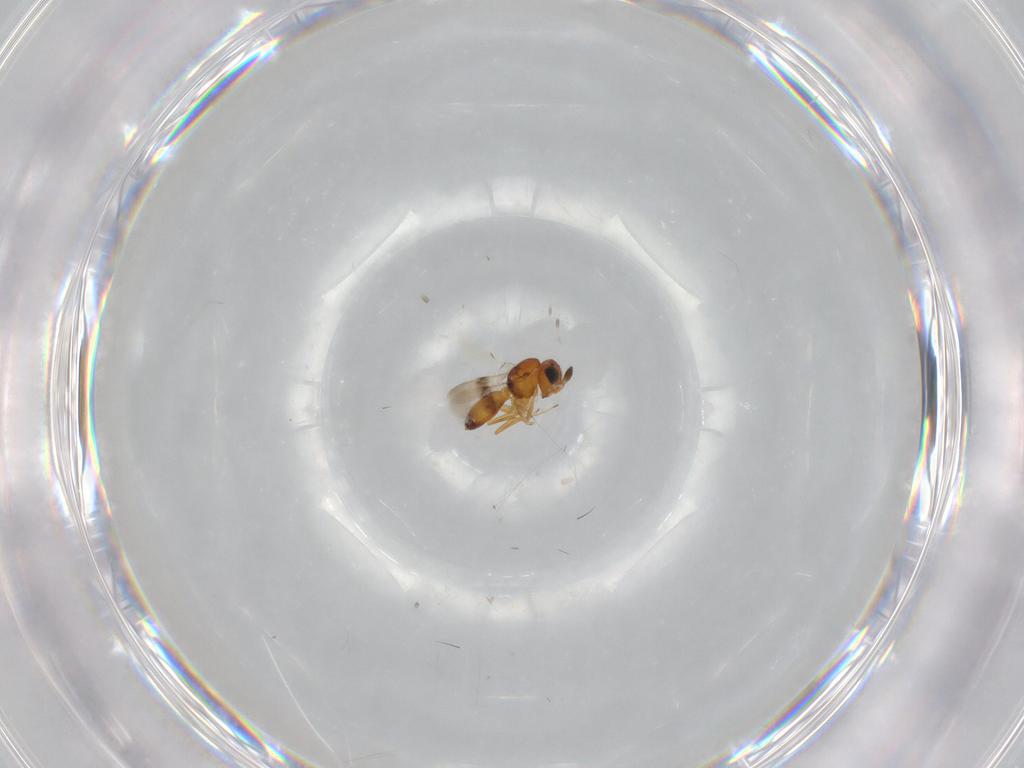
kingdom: Animalia
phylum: Arthropoda
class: Insecta
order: Hymenoptera
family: Scelionidae
